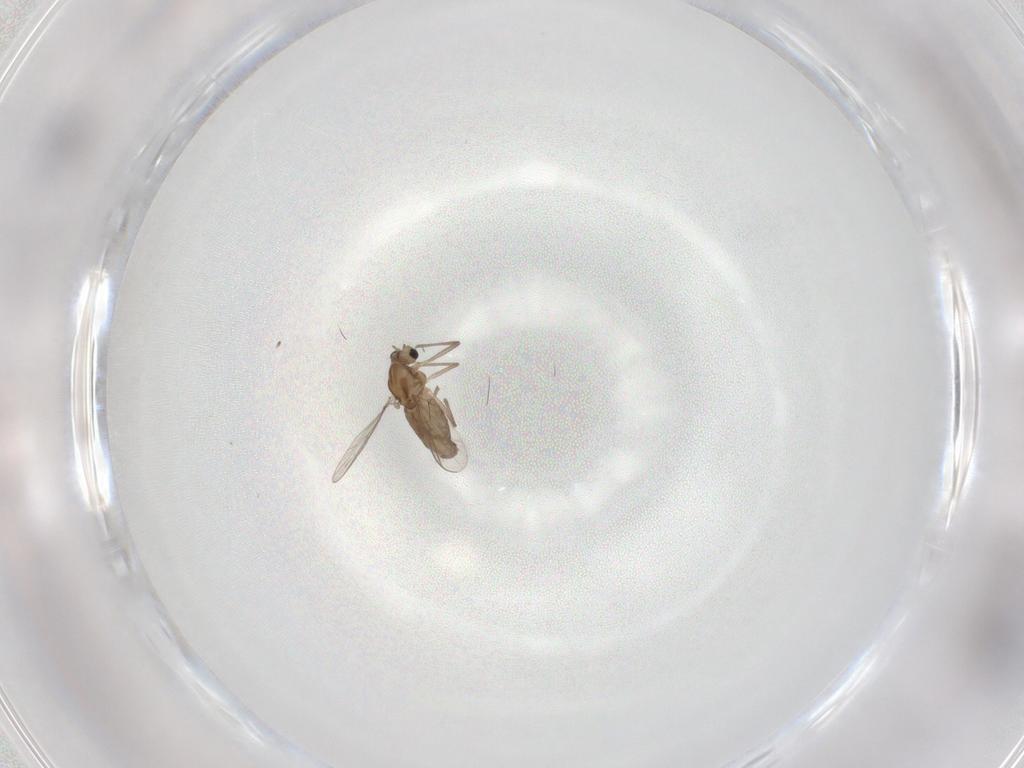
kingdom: Animalia
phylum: Arthropoda
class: Insecta
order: Diptera
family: Chironomidae
